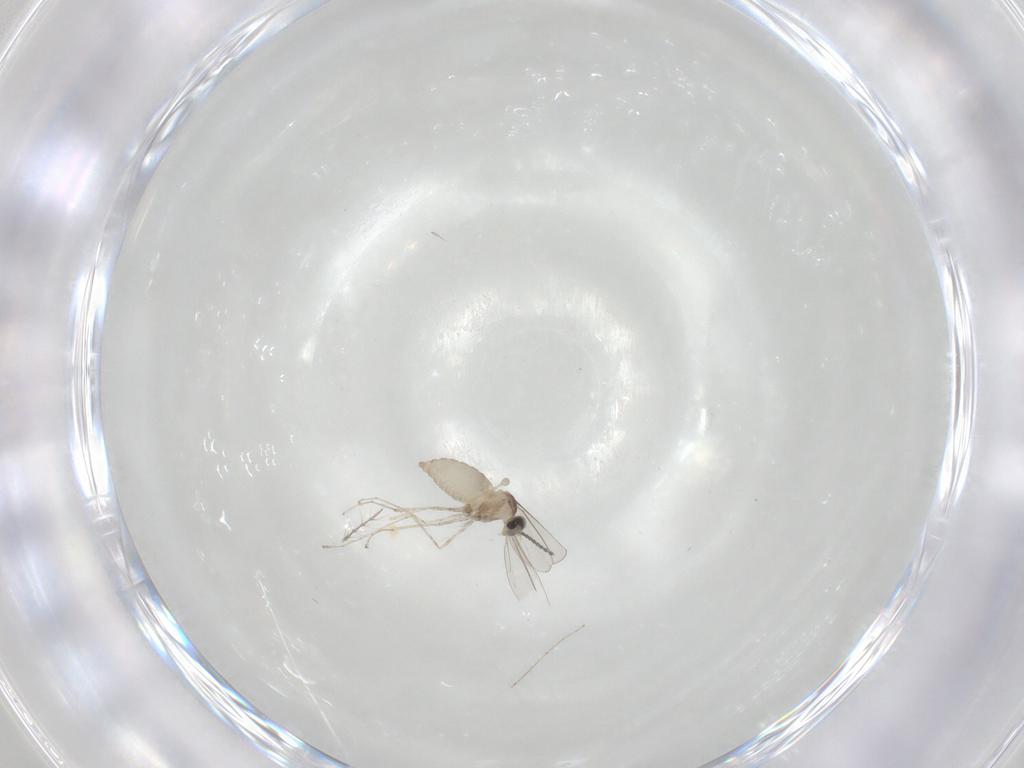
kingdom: Animalia
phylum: Arthropoda
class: Insecta
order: Diptera
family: Cecidomyiidae
